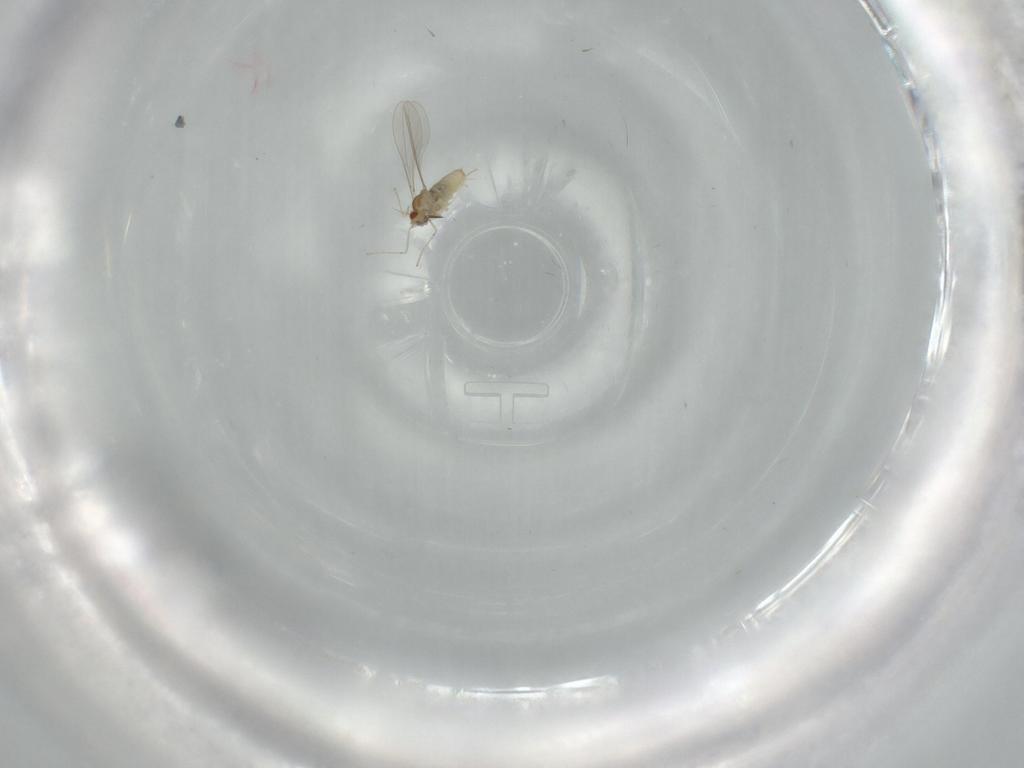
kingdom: Animalia
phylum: Arthropoda
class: Insecta
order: Diptera
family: Cecidomyiidae
